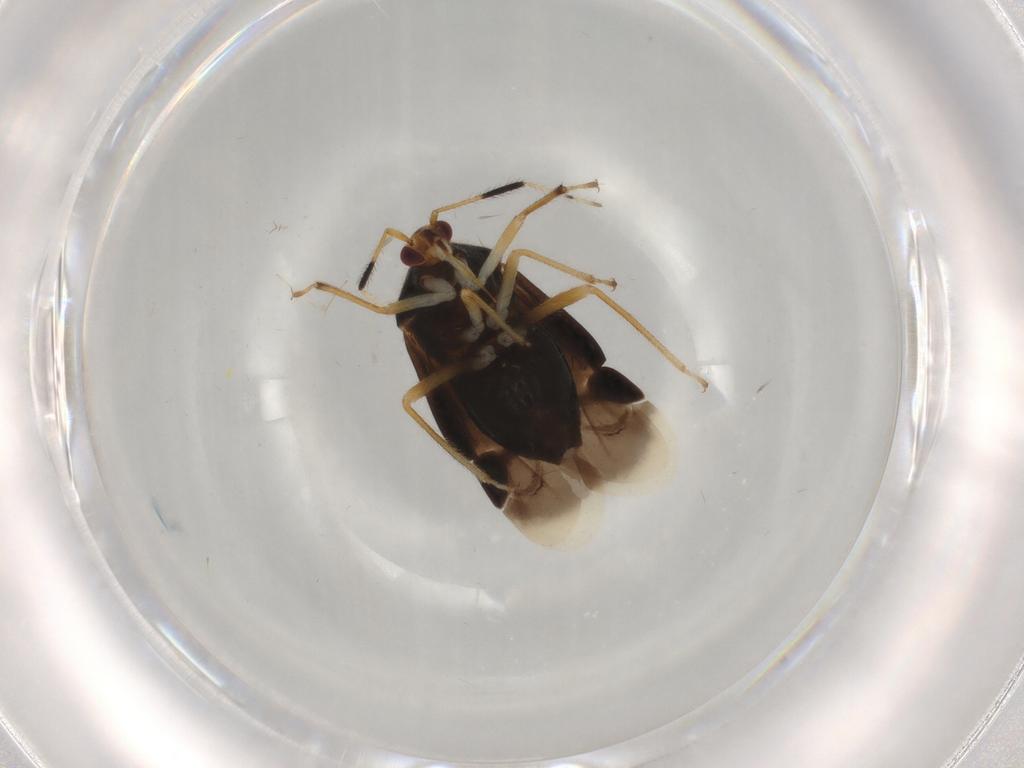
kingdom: Animalia
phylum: Arthropoda
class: Insecta
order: Hemiptera
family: Miridae
